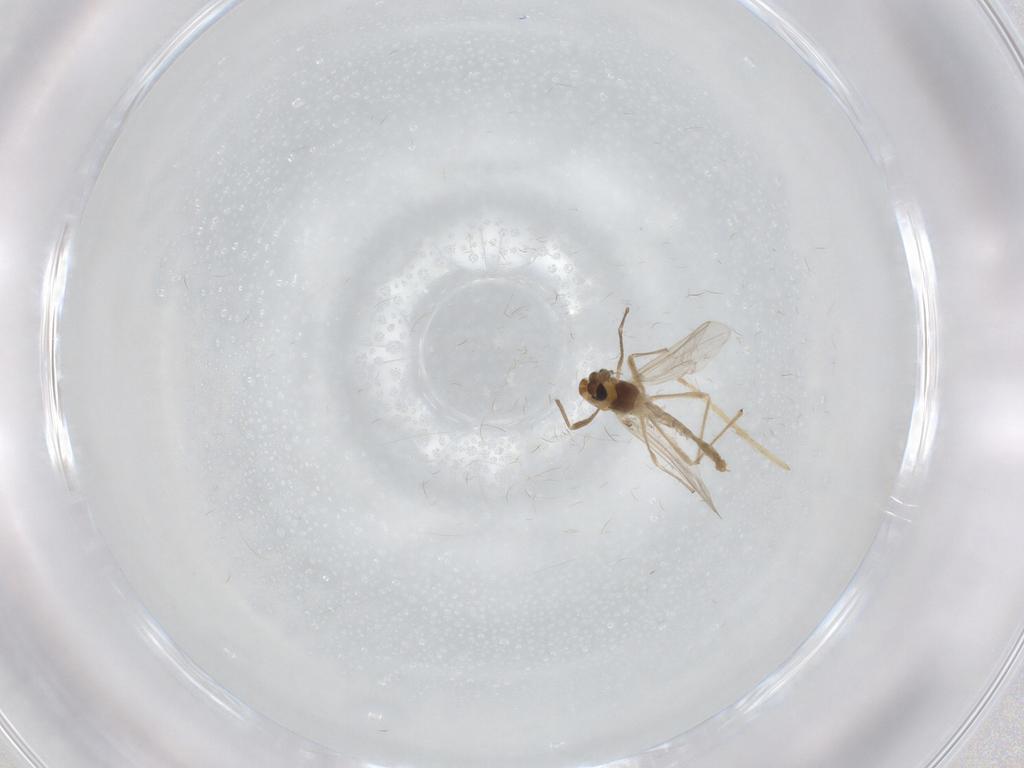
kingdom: Animalia
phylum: Arthropoda
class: Insecta
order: Diptera
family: Chironomidae
